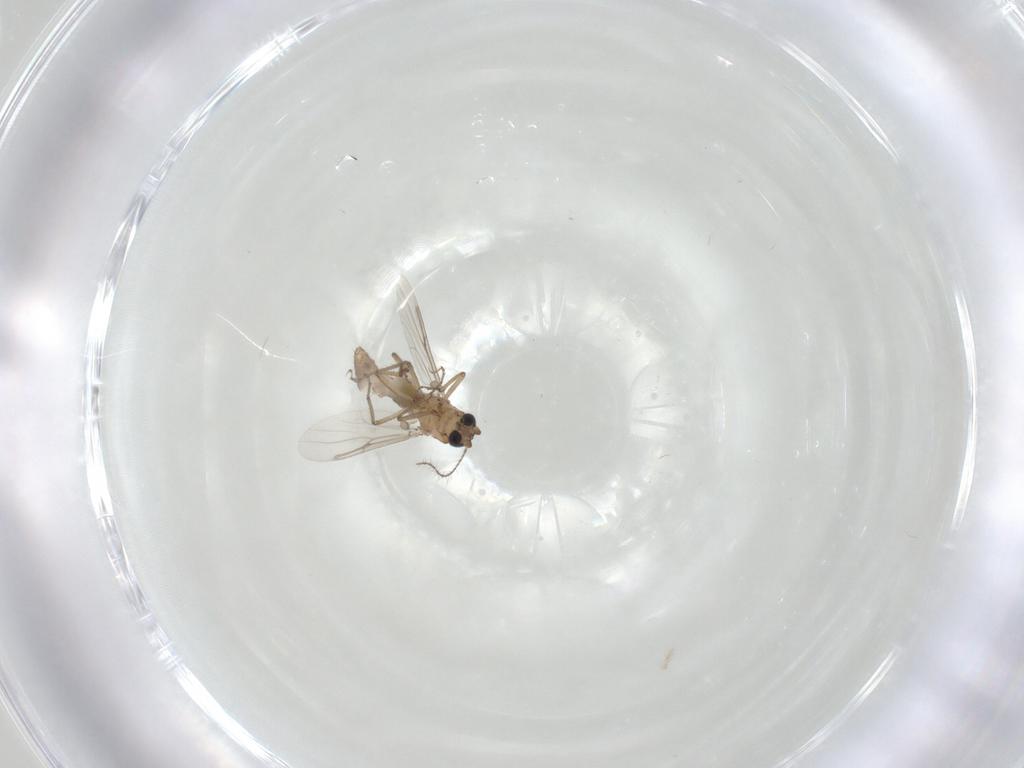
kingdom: Animalia
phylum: Arthropoda
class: Insecta
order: Diptera
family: Ceratopogonidae
